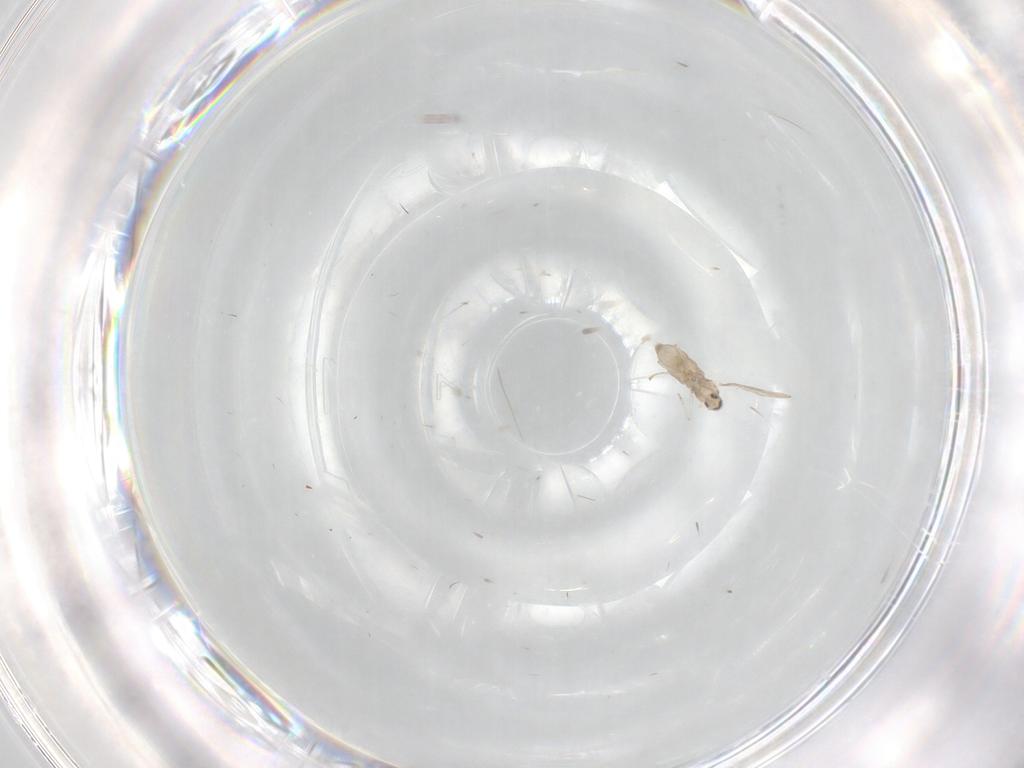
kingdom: Animalia
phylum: Arthropoda
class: Insecta
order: Diptera
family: Cecidomyiidae
